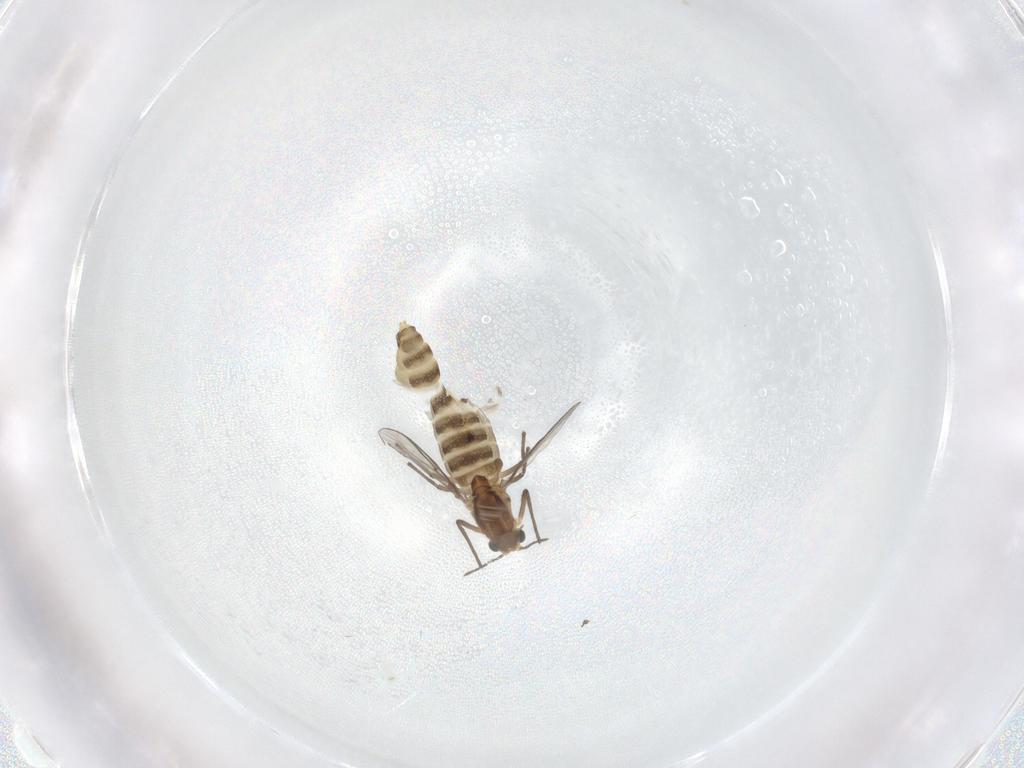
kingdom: Animalia
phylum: Arthropoda
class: Insecta
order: Diptera
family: Chironomidae
